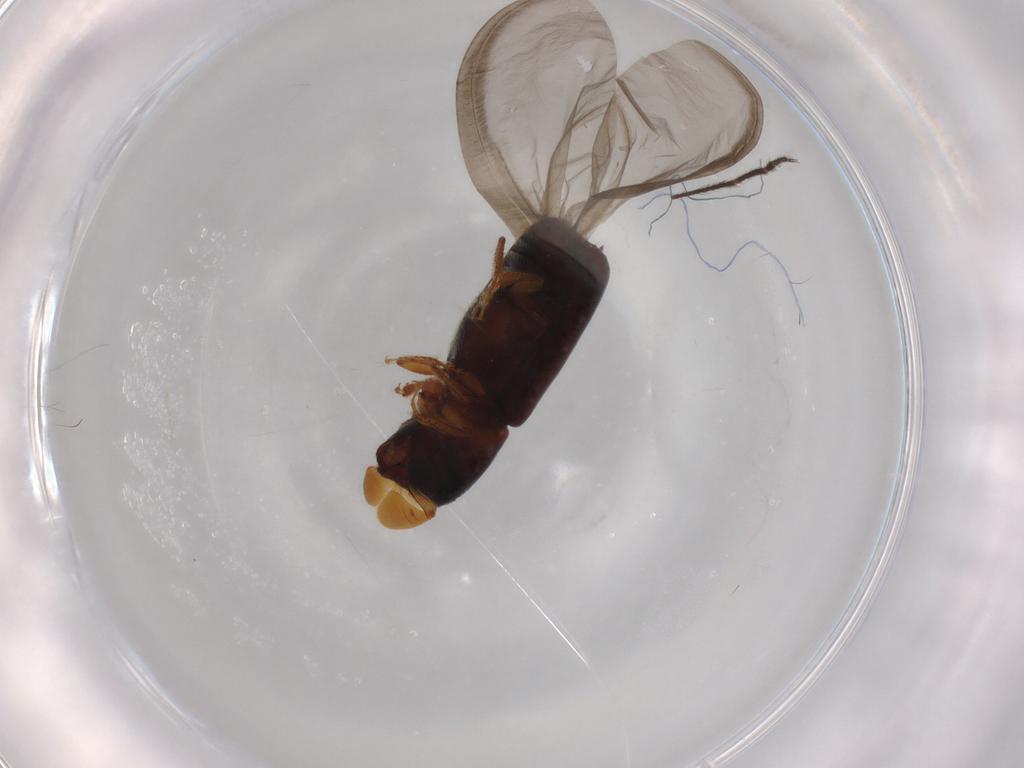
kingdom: Animalia
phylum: Arthropoda
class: Insecta
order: Coleoptera
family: Curculionidae
